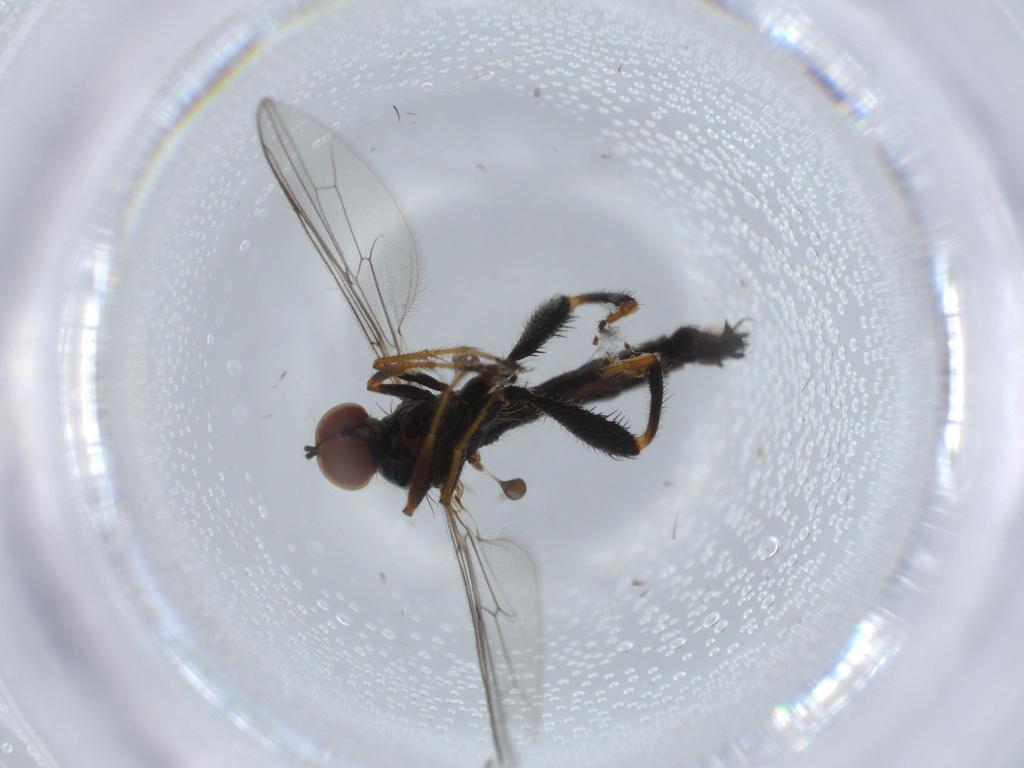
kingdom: Animalia
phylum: Arthropoda
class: Insecta
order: Diptera
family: Hybotidae
